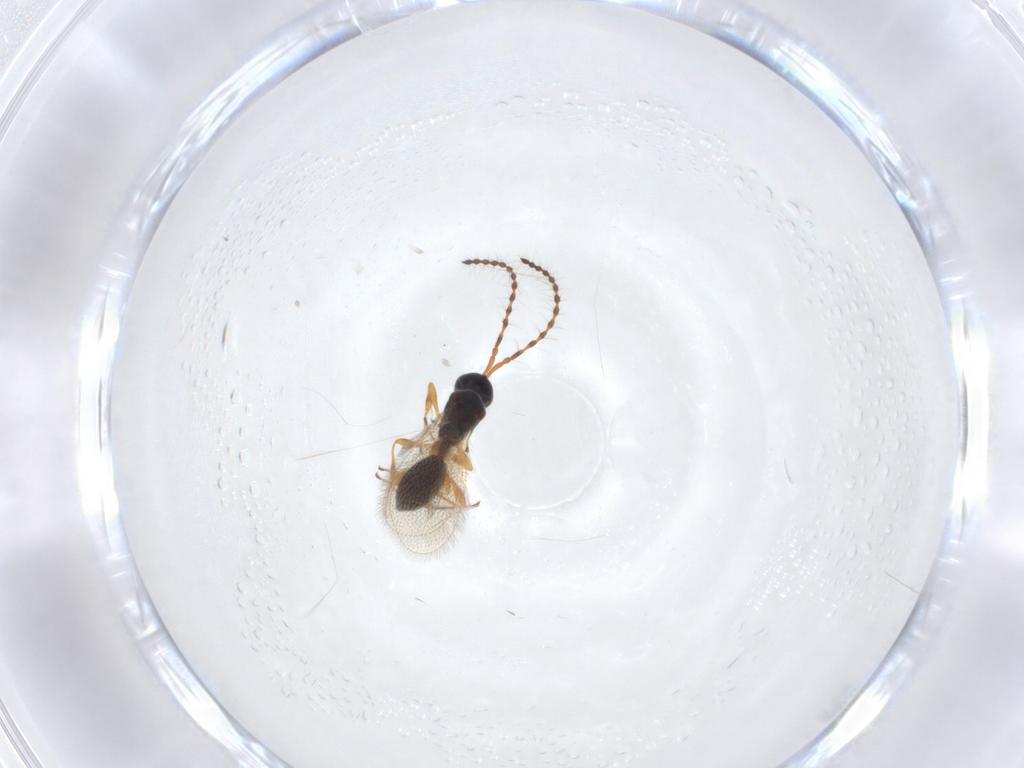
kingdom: Animalia
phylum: Arthropoda
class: Insecta
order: Hymenoptera
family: Diapriidae
